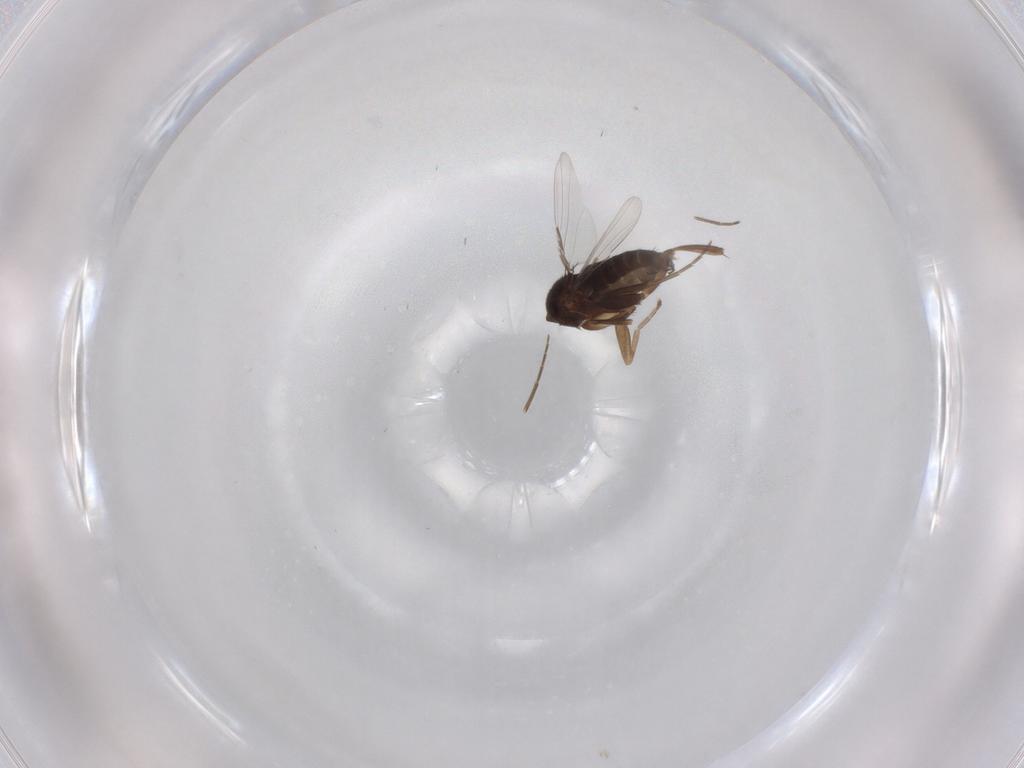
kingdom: Animalia
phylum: Arthropoda
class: Insecta
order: Diptera
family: Phoridae
